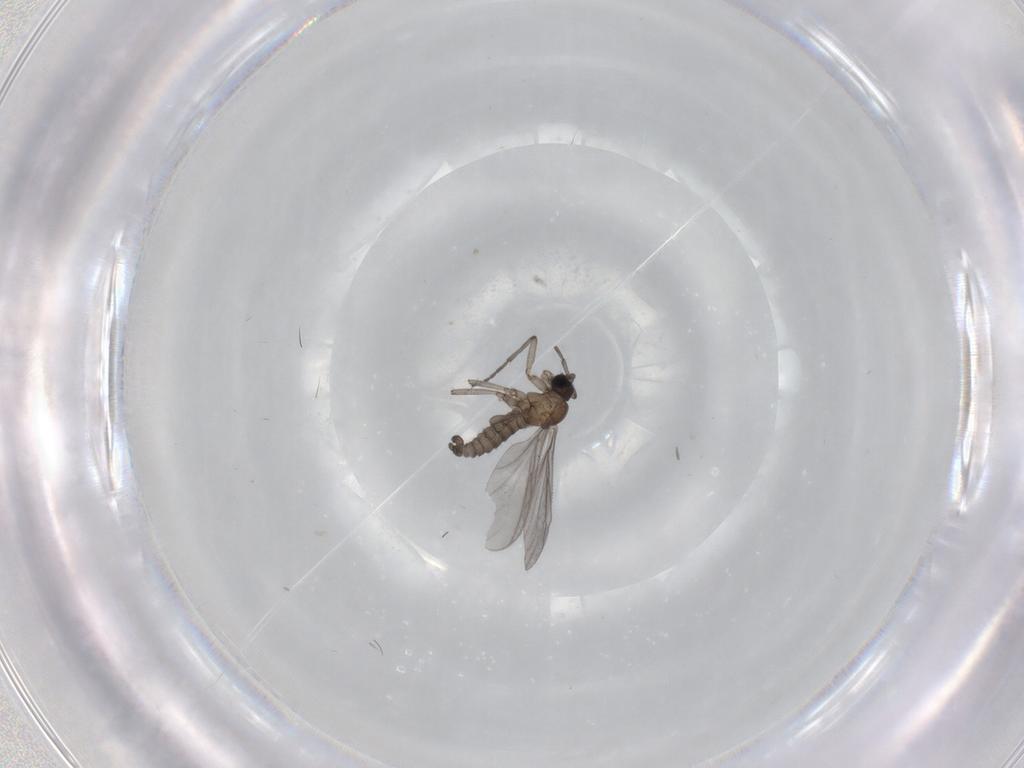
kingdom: Animalia
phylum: Arthropoda
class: Insecta
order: Diptera
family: Sciaridae
